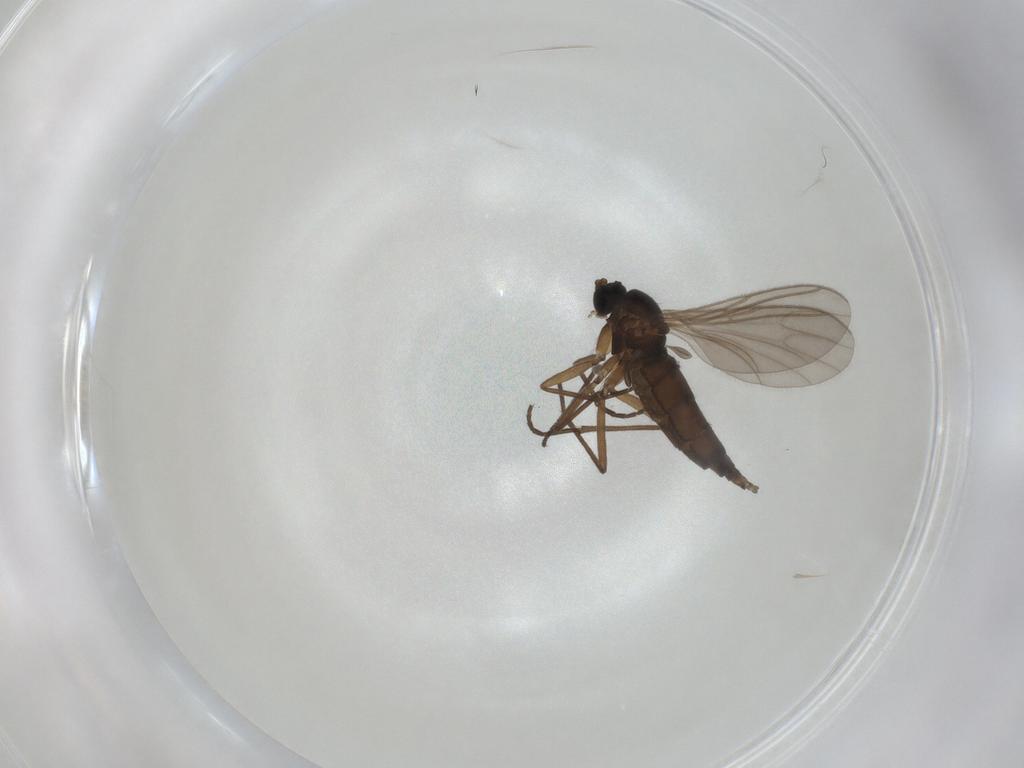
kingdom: Animalia
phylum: Arthropoda
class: Insecta
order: Diptera
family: Sciaridae
